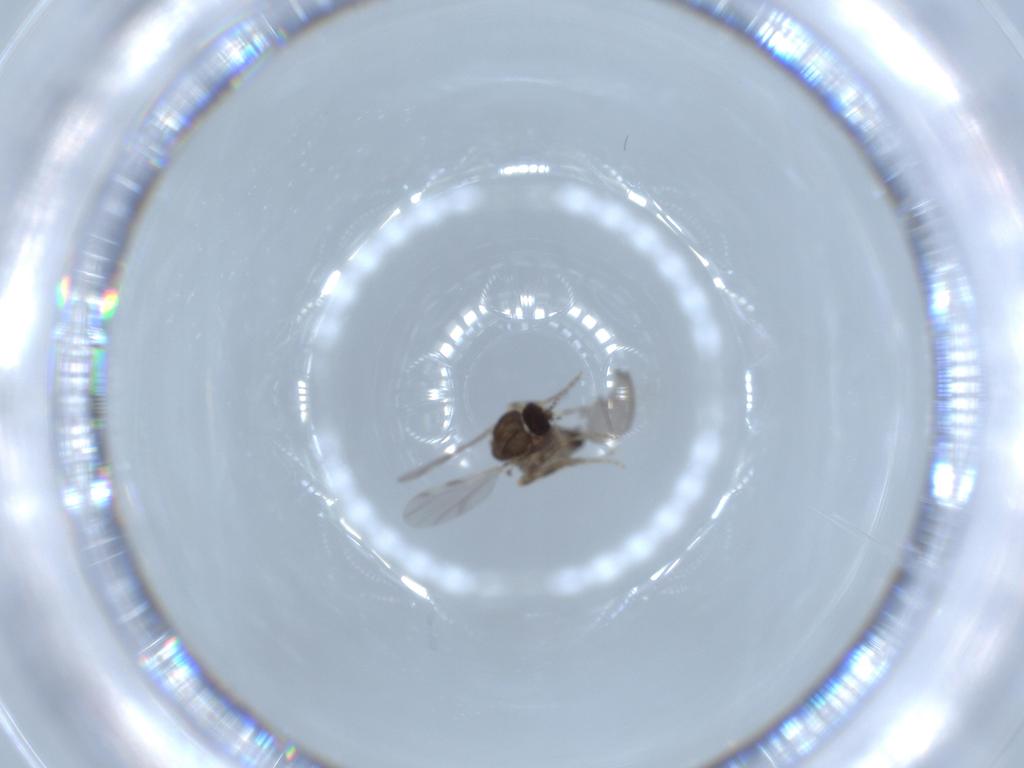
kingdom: Animalia
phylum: Arthropoda
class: Insecta
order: Diptera
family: Ceratopogonidae
